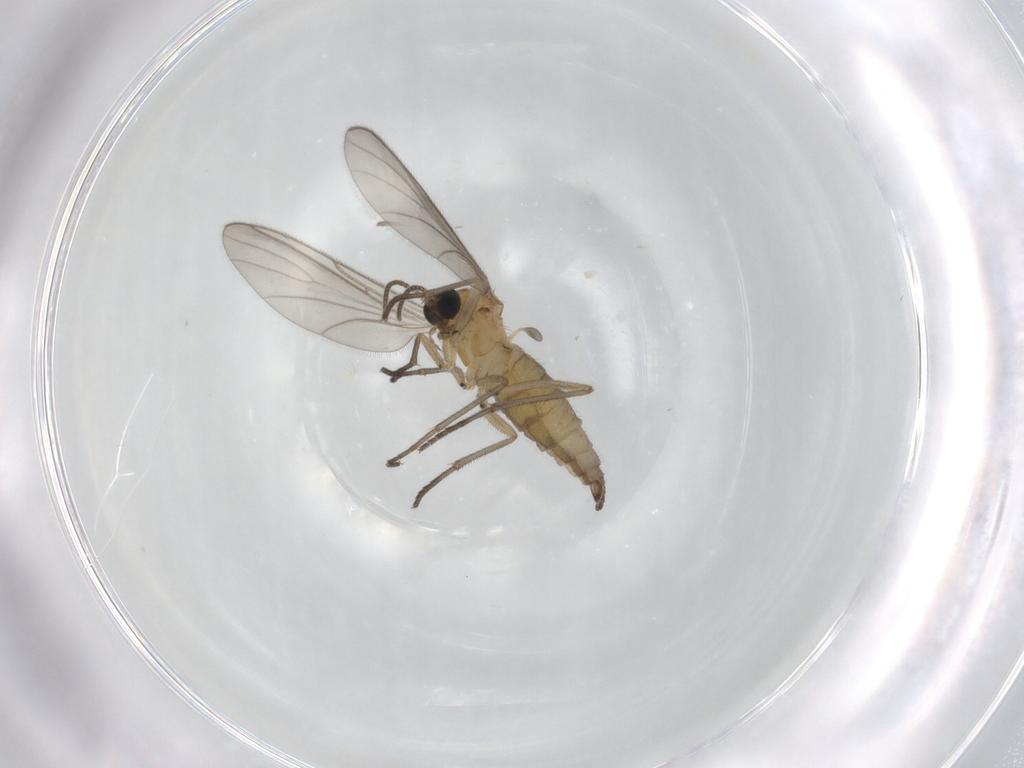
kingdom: Animalia
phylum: Arthropoda
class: Insecta
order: Diptera
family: Sciaridae
